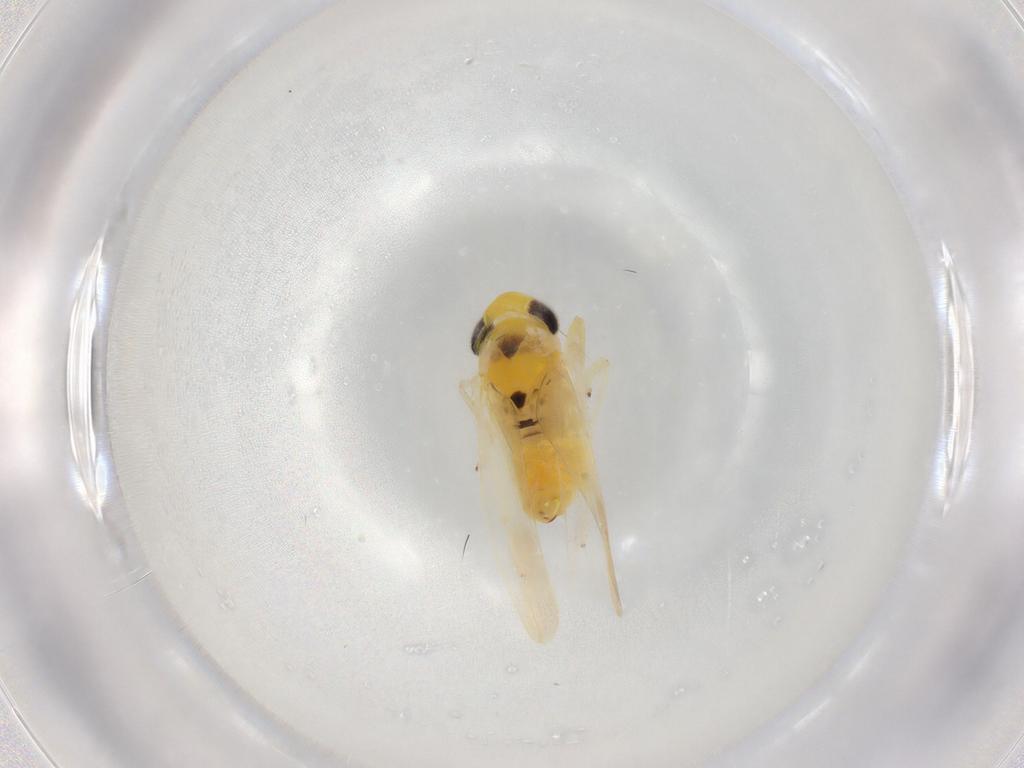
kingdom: Animalia
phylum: Arthropoda
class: Insecta
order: Hemiptera
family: Cicadellidae
